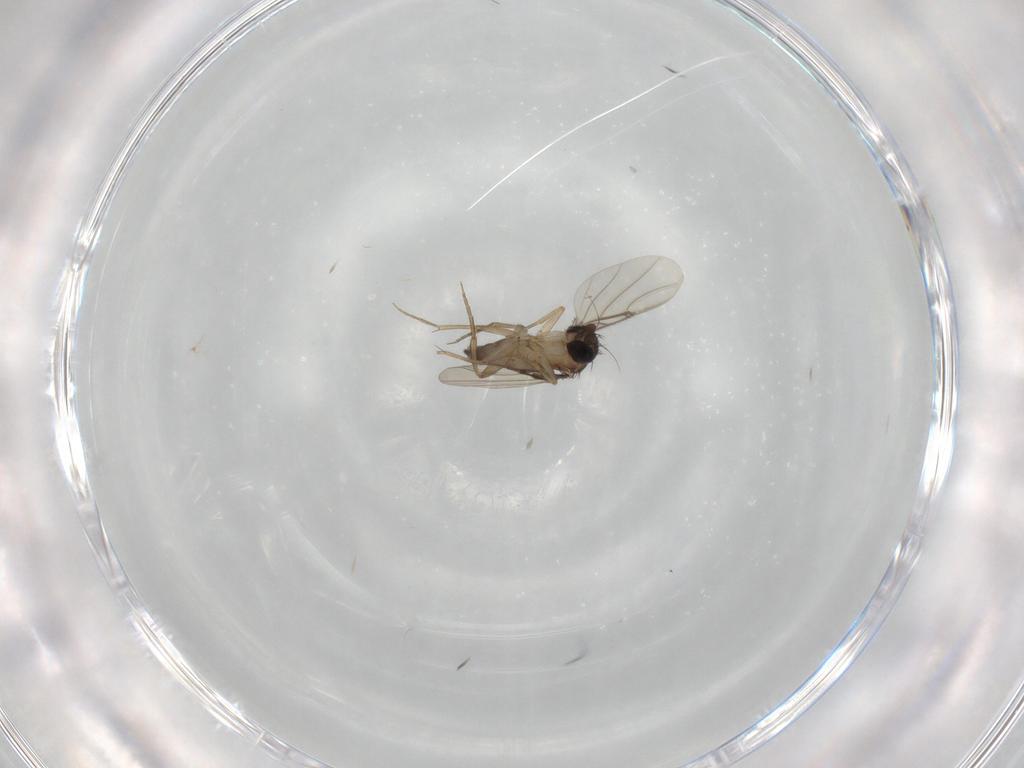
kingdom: Animalia
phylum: Arthropoda
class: Insecta
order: Diptera
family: Phoridae
